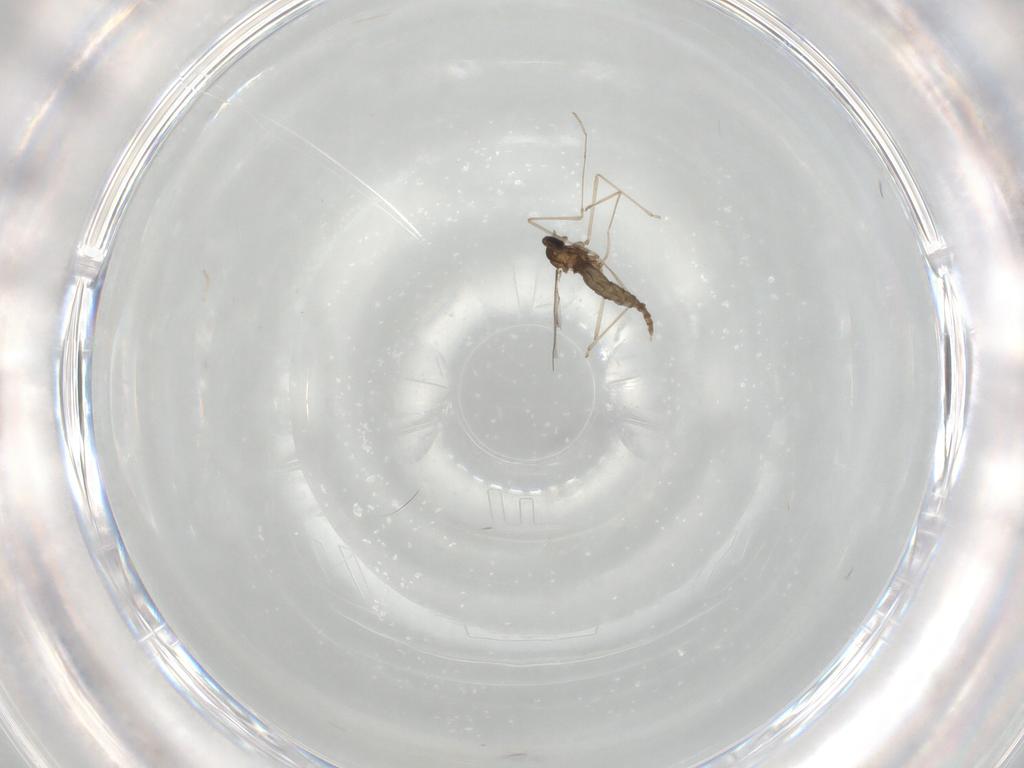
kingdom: Animalia
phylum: Arthropoda
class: Insecta
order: Diptera
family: Cecidomyiidae
